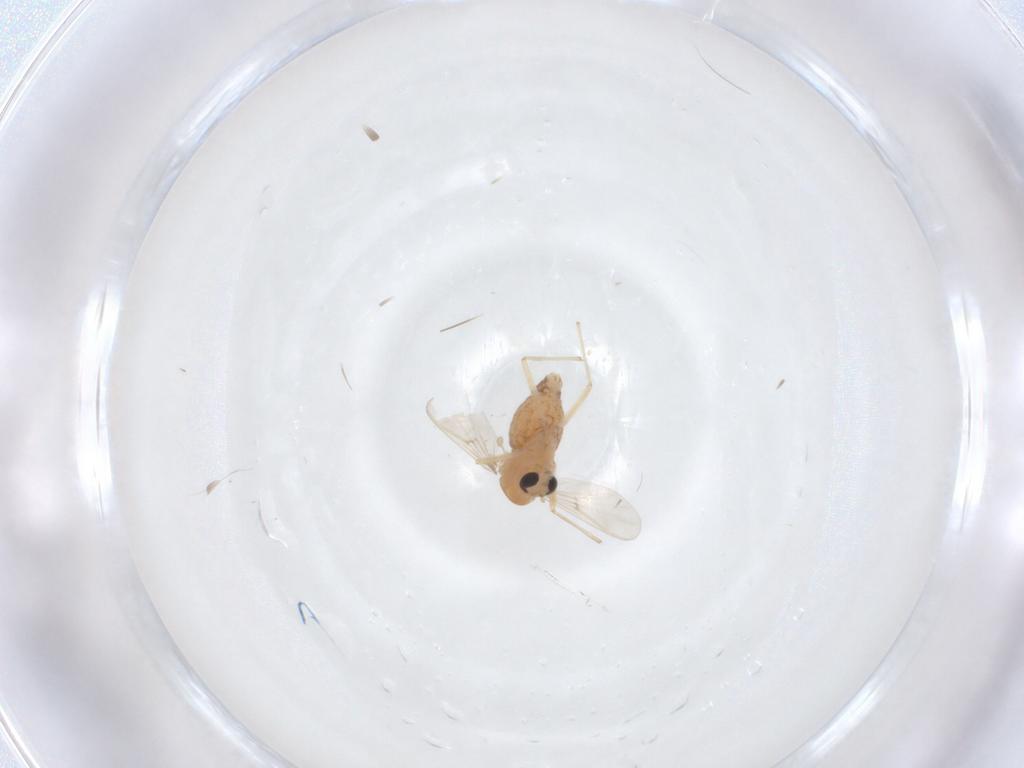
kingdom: Animalia
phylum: Arthropoda
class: Insecta
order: Diptera
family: Chironomidae
